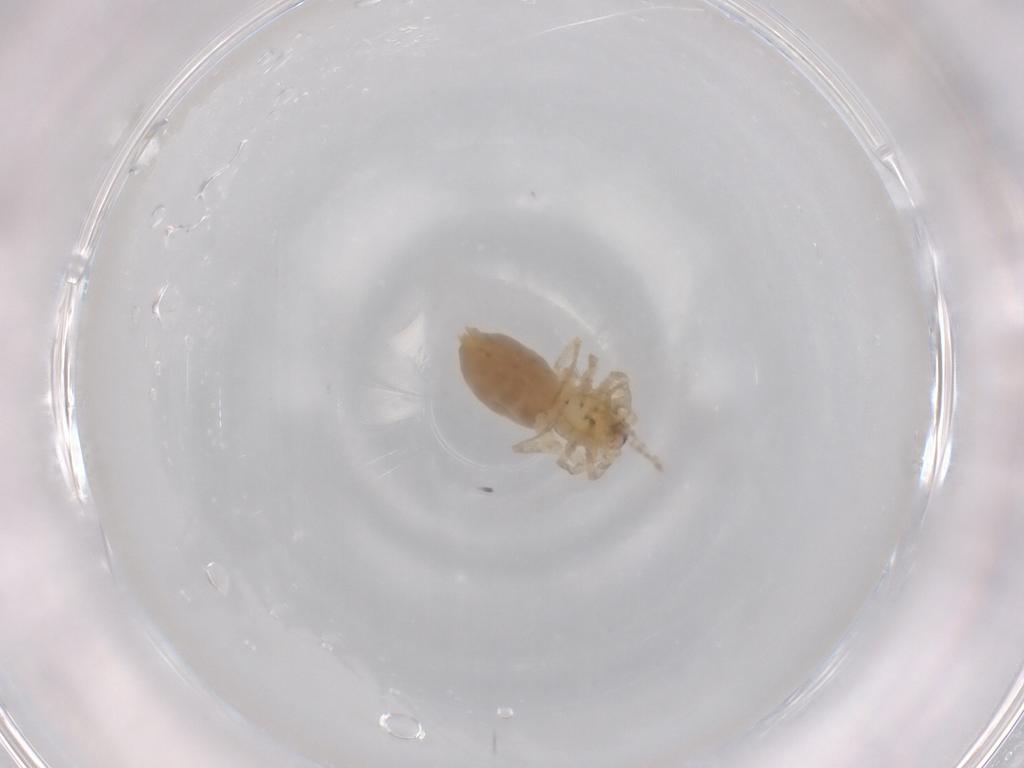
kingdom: Animalia
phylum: Arthropoda
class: Arachnida
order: Araneae
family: Anyphaenidae
